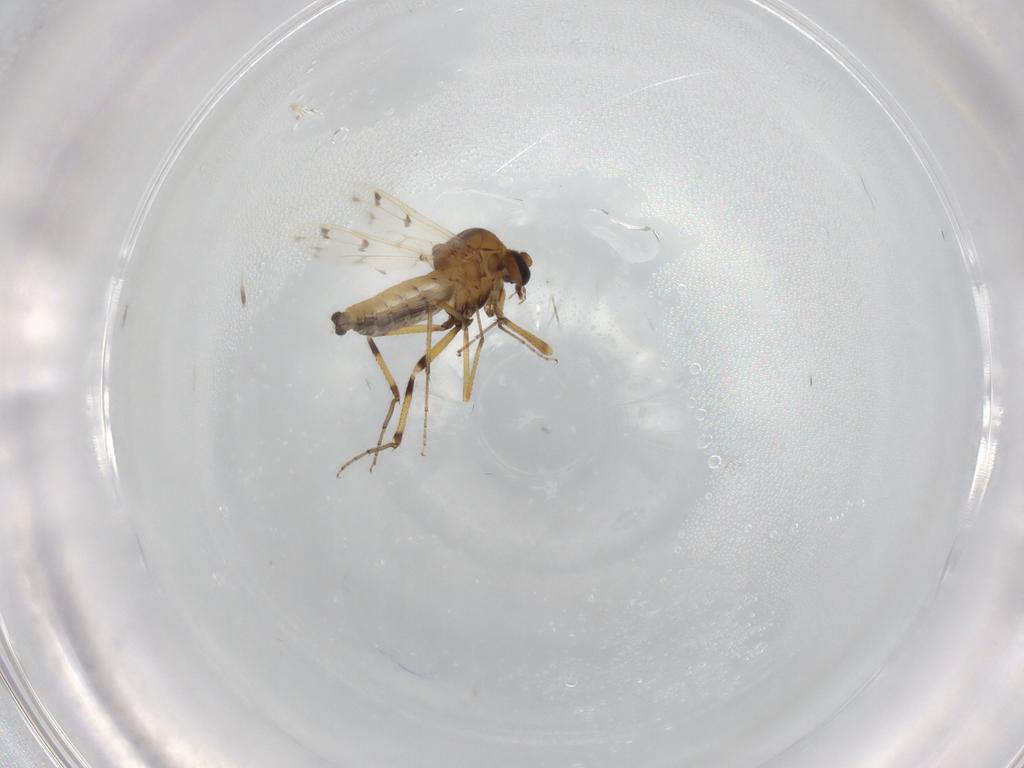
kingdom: Animalia
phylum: Arthropoda
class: Insecta
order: Diptera
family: Ceratopogonidae
